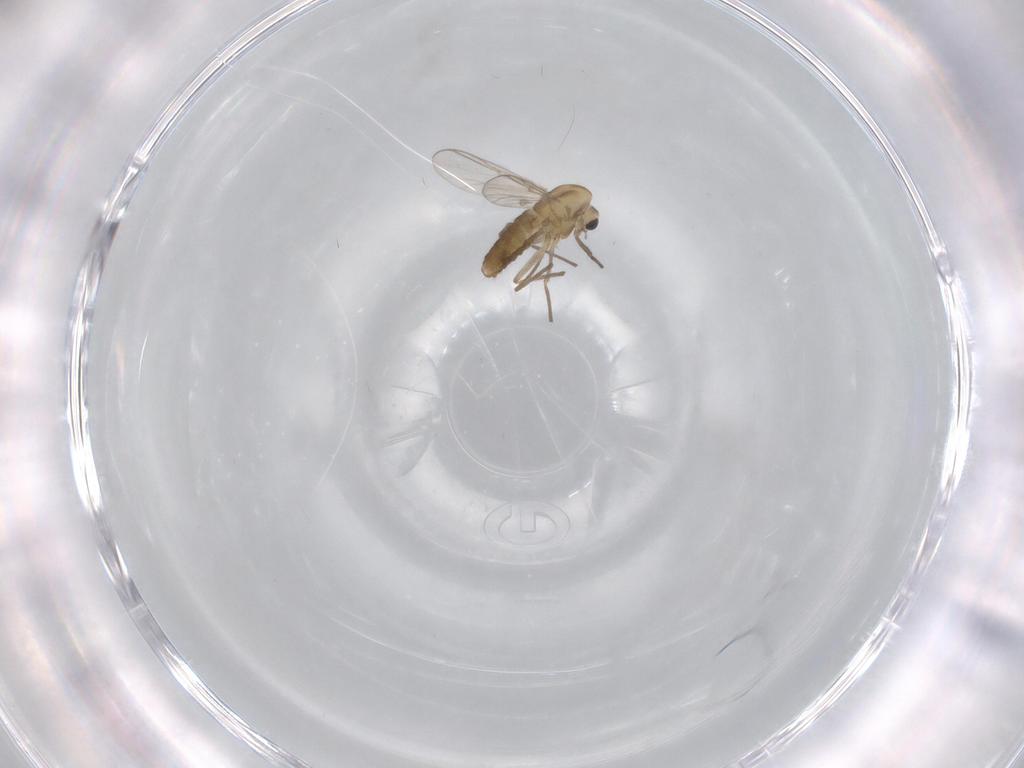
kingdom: Animalia
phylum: Arthropoda
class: Insecta
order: Diptera
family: Chironomidae
